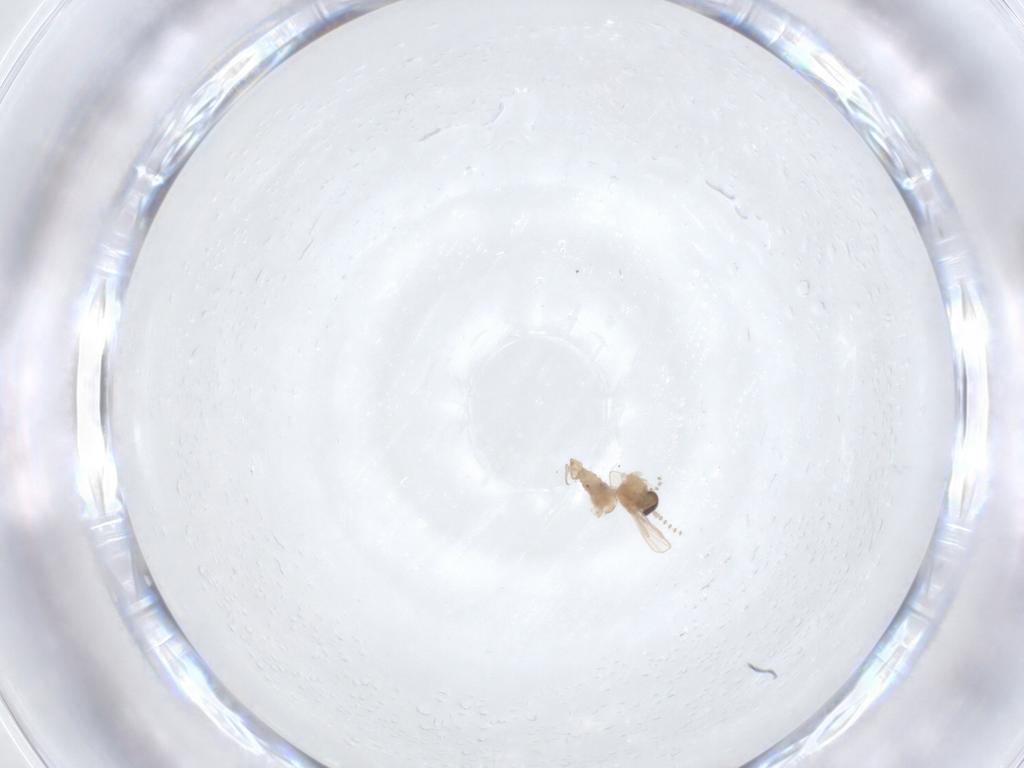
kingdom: Animalia
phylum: Arthropoda
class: Insecta
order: Diptera
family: Psychodidae
